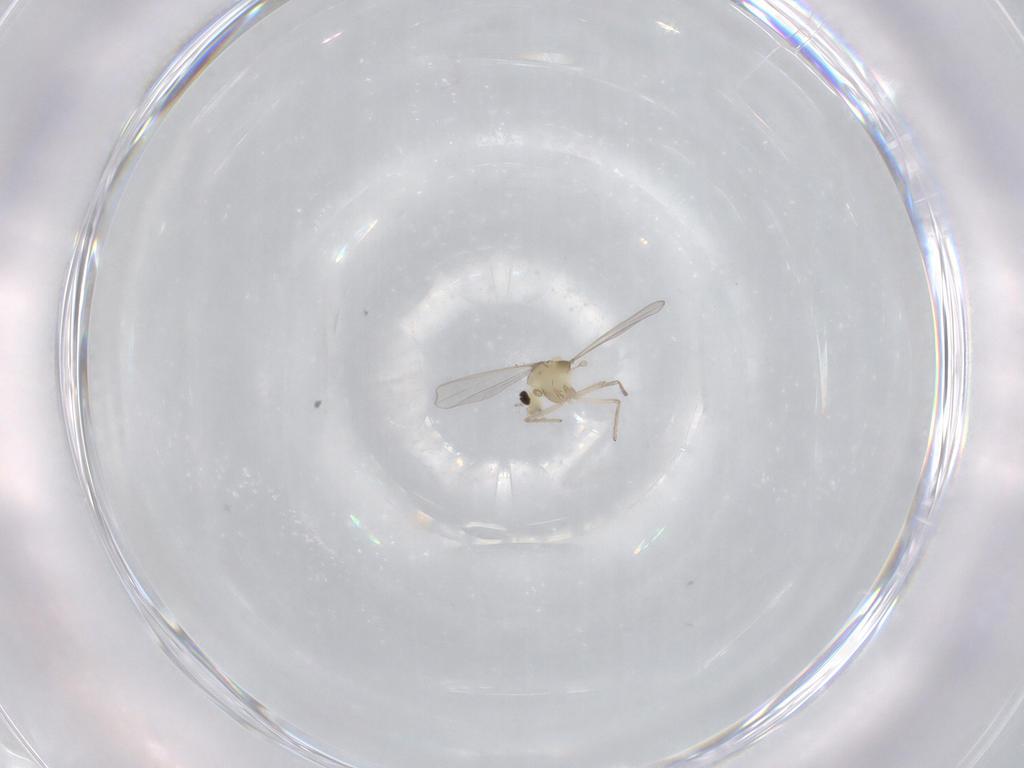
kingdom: Animalia
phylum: Arthropoda
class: Insecta
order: Diptera
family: Chironomidae
